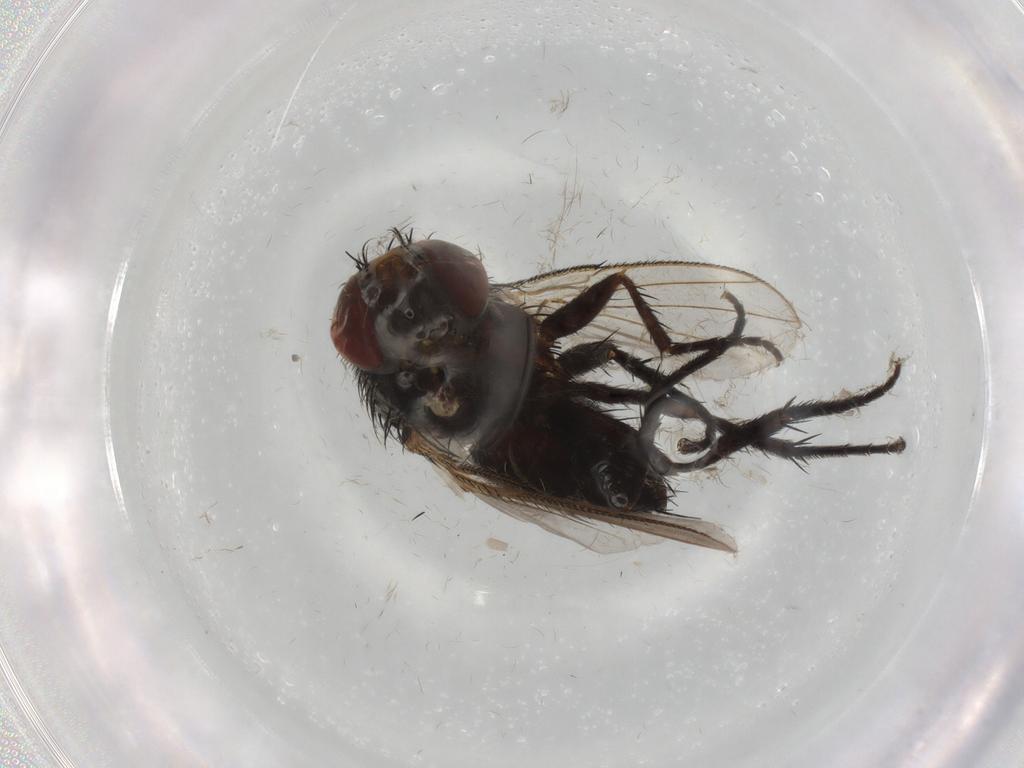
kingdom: Animalia
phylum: Arthropoda
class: Insecta
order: Diptera
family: Tachinidae
